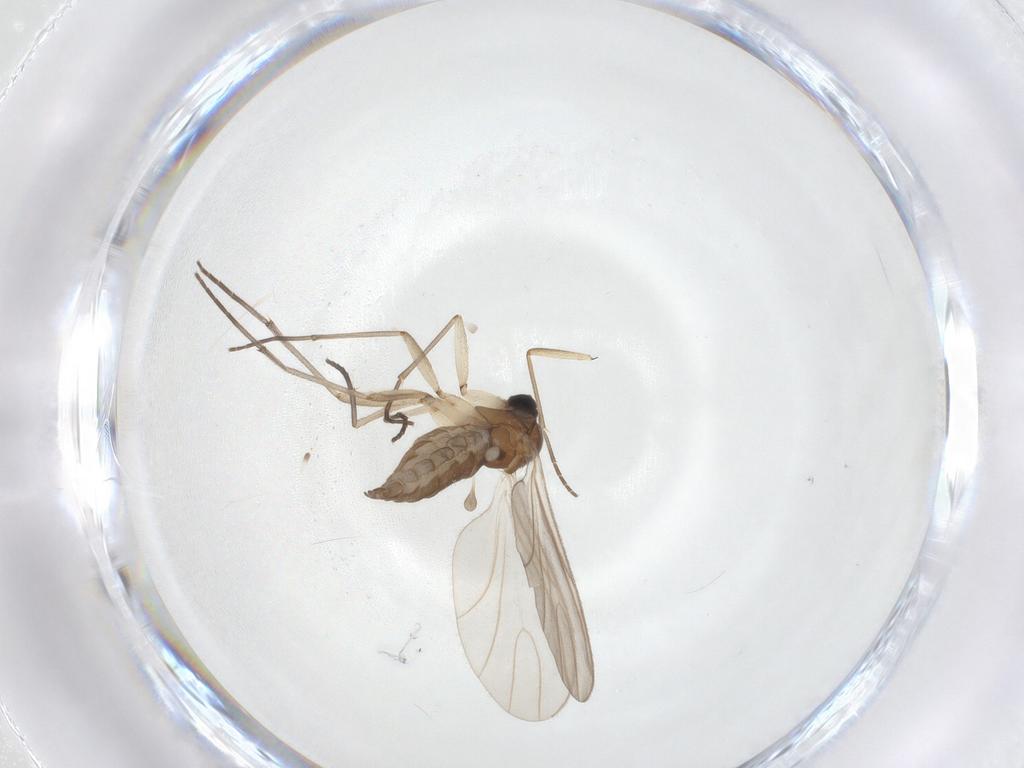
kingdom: Animalia
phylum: Arthropoda
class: Insecta
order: Diptera
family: Sciaridae
